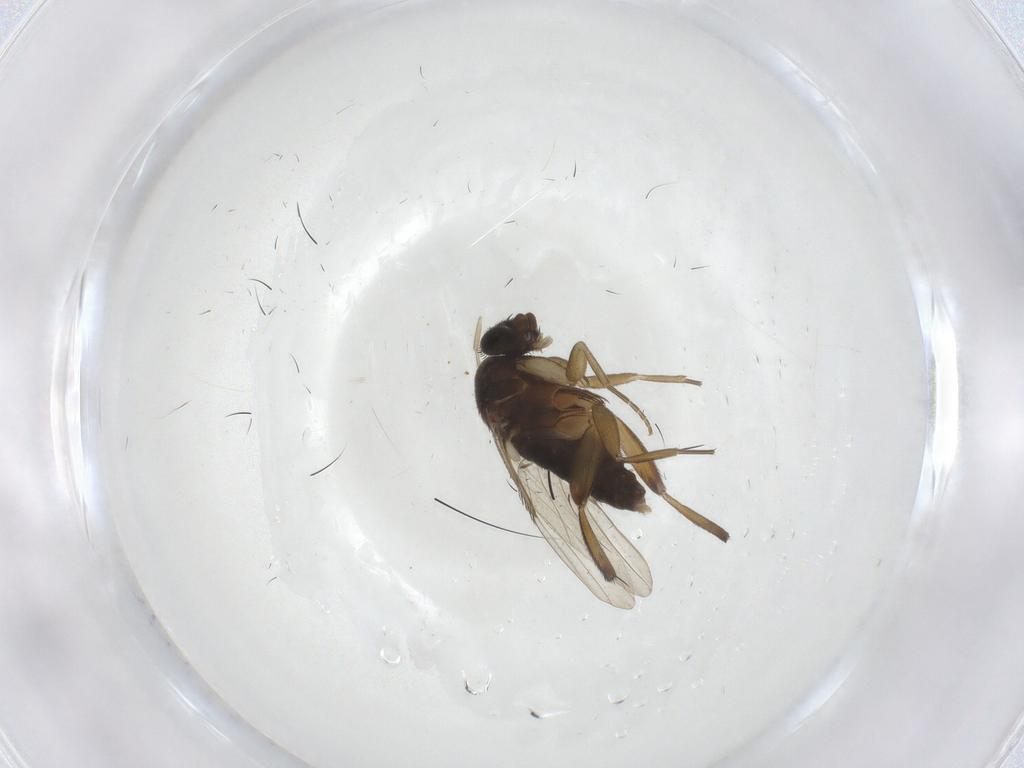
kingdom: Animalia
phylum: Arthropoda
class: Insecta
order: Diptera
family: Phoridae
